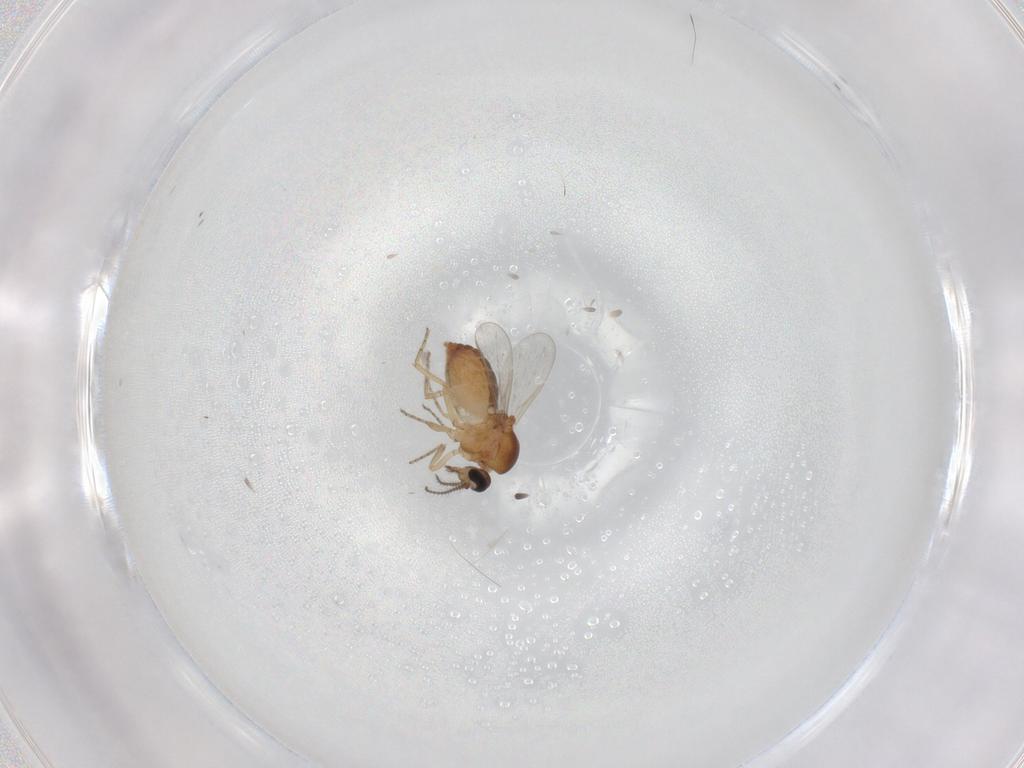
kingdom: Animalia
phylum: Arthropoda
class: Insecta
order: Diptera
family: Ceratopogonidae
